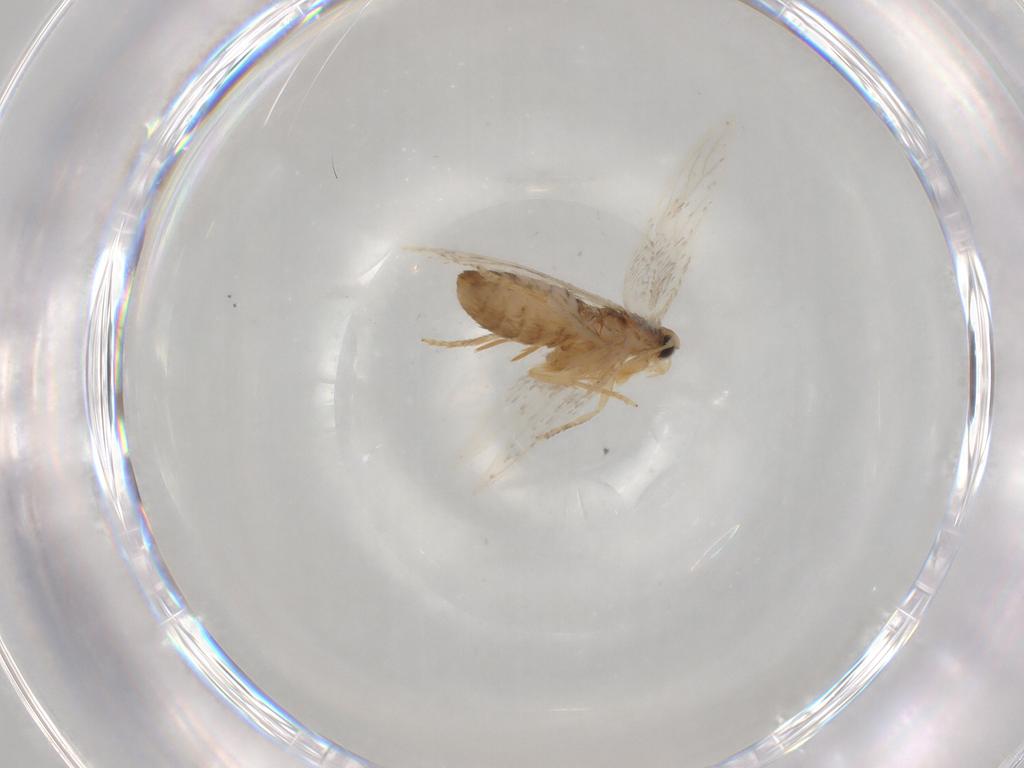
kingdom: Animalia
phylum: Arthropoda
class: Insecta
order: Lepidoptera
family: Nepticulidae
